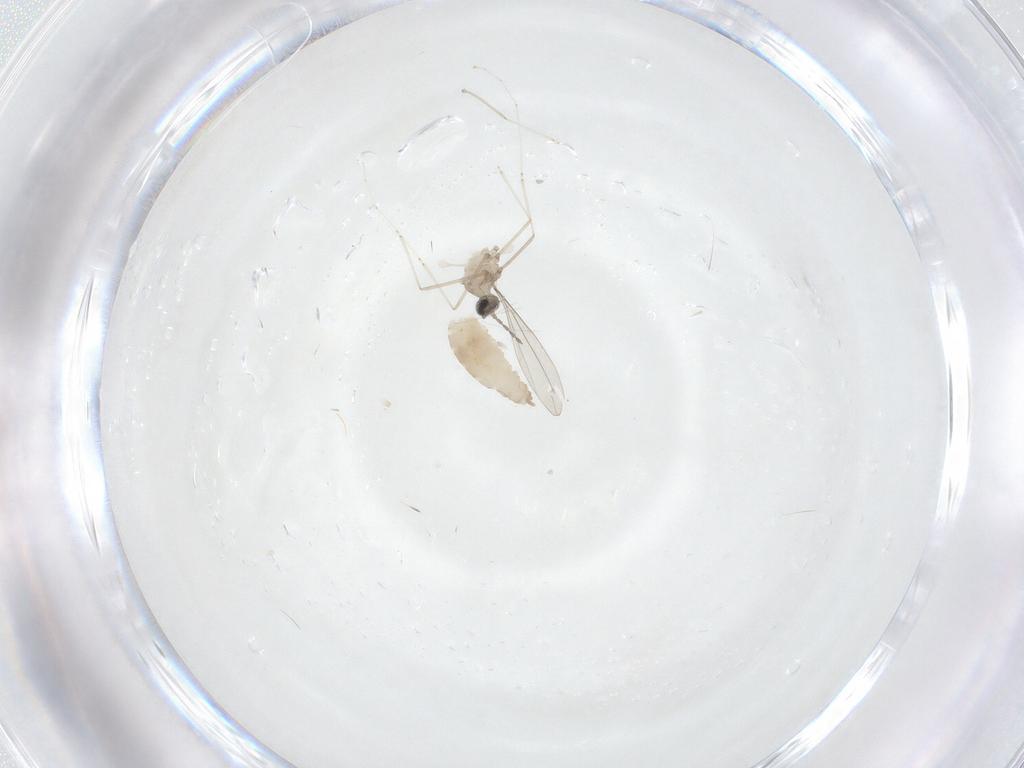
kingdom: Animalia
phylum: Arthropoda
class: Insecta
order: Diptera
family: Cecidomyiidae
